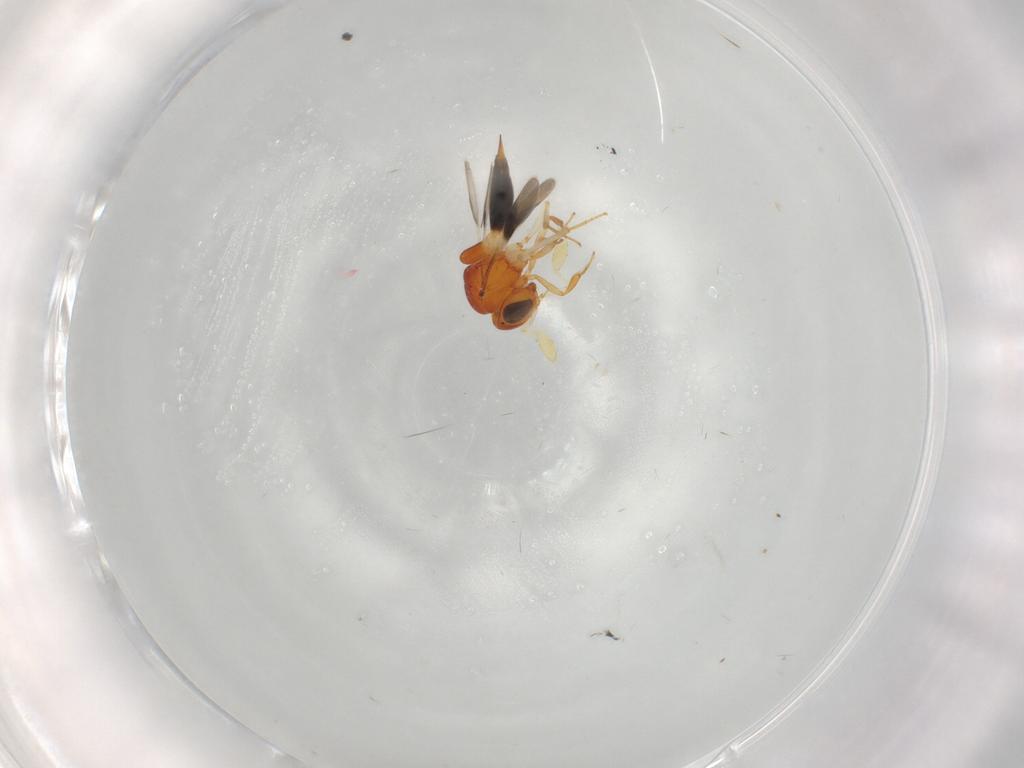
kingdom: Animalia
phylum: Arthropoda
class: Insecta
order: Hymenoptera
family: Scelionidae
